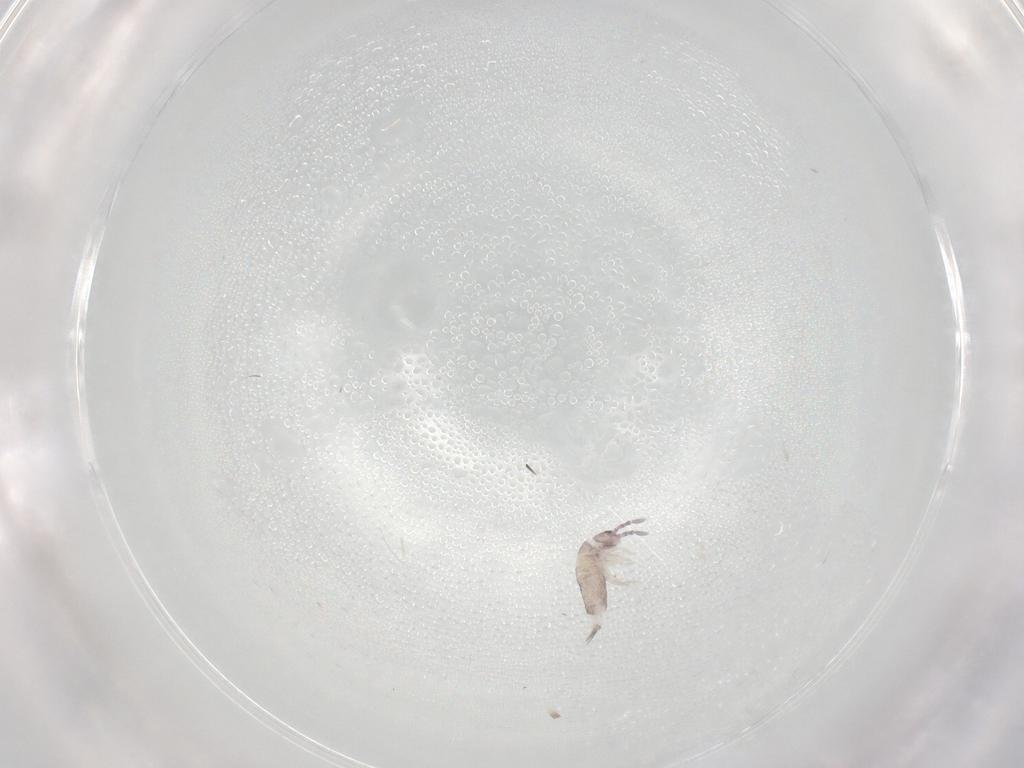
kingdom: Animalia
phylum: Arthropoda
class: Collembola
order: Entomobryomorpha
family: Entomobryidae
